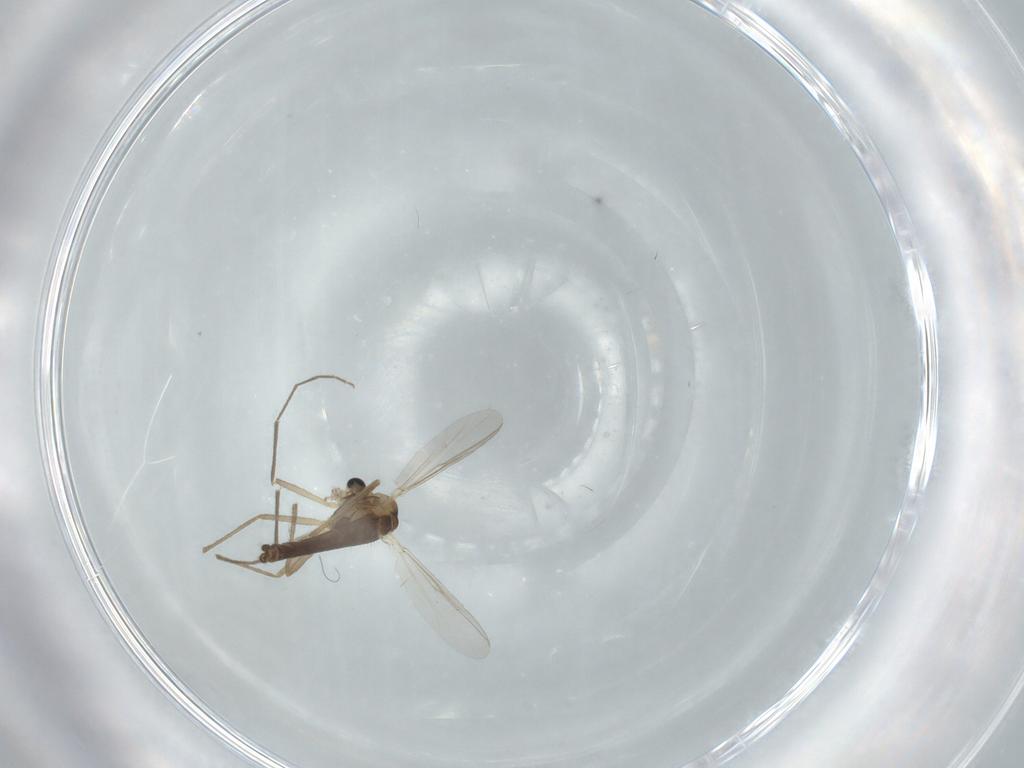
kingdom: Animalia
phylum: Arthropoda
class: Insecta
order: Diptera
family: Chironomidae
